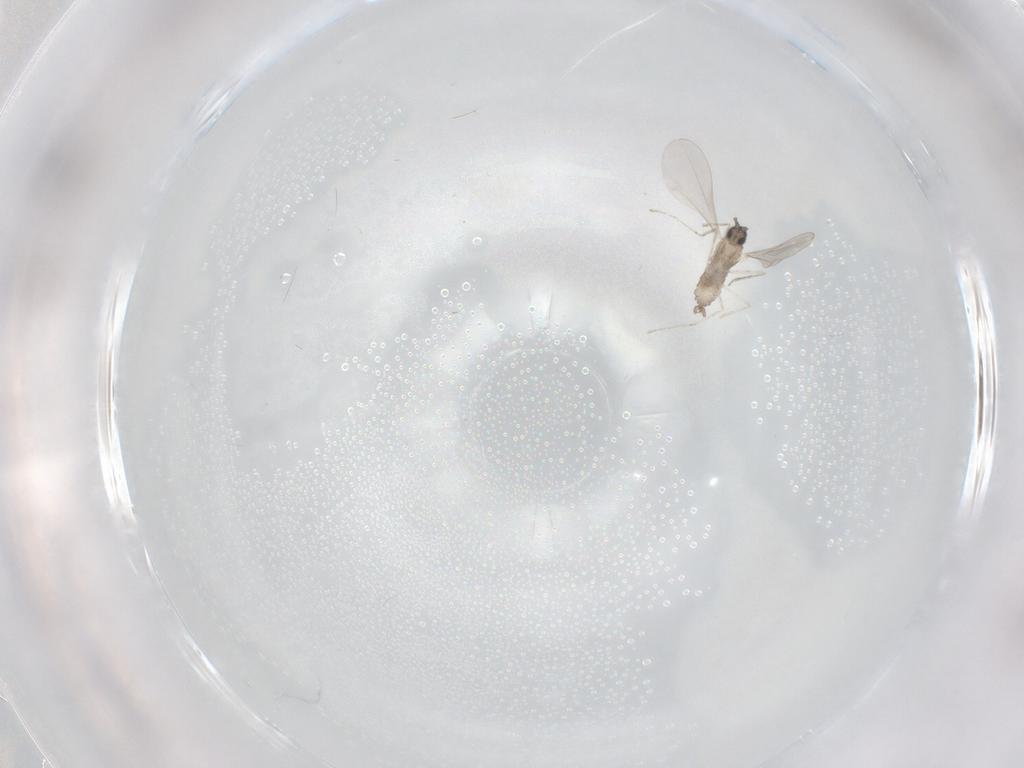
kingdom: Animalia
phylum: Arthropoda
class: Insecta
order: Diptera
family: Cecidomyiidae
